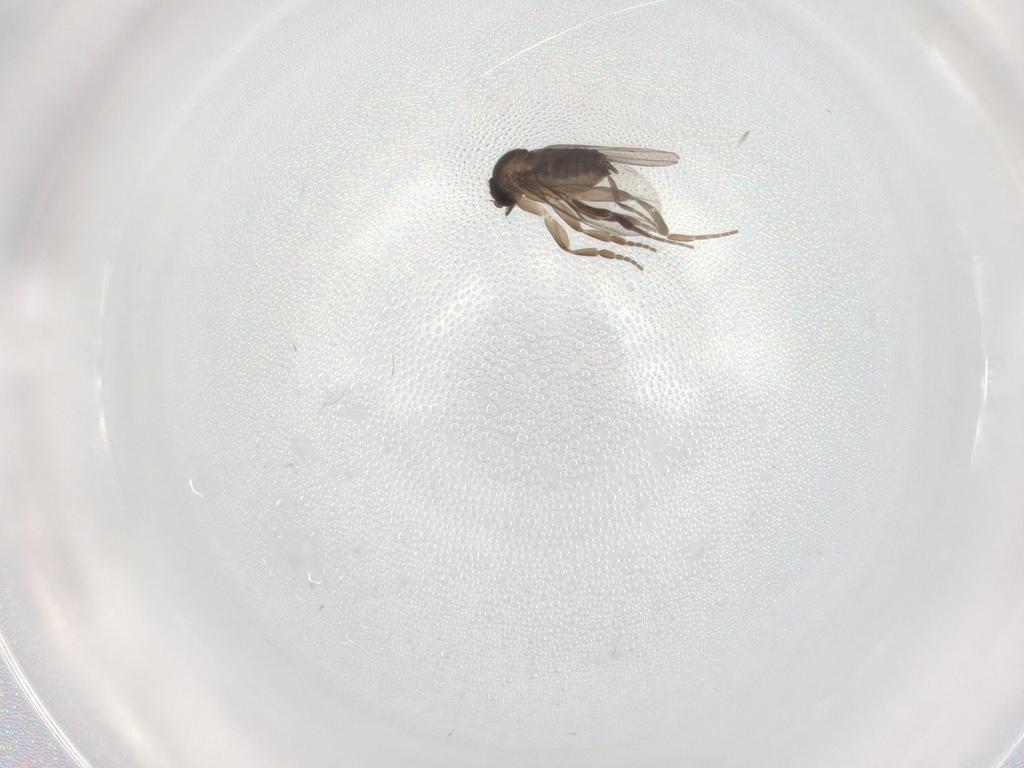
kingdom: Animalia
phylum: Arthropoda
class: Insecta
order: Diptera
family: Phoridae
